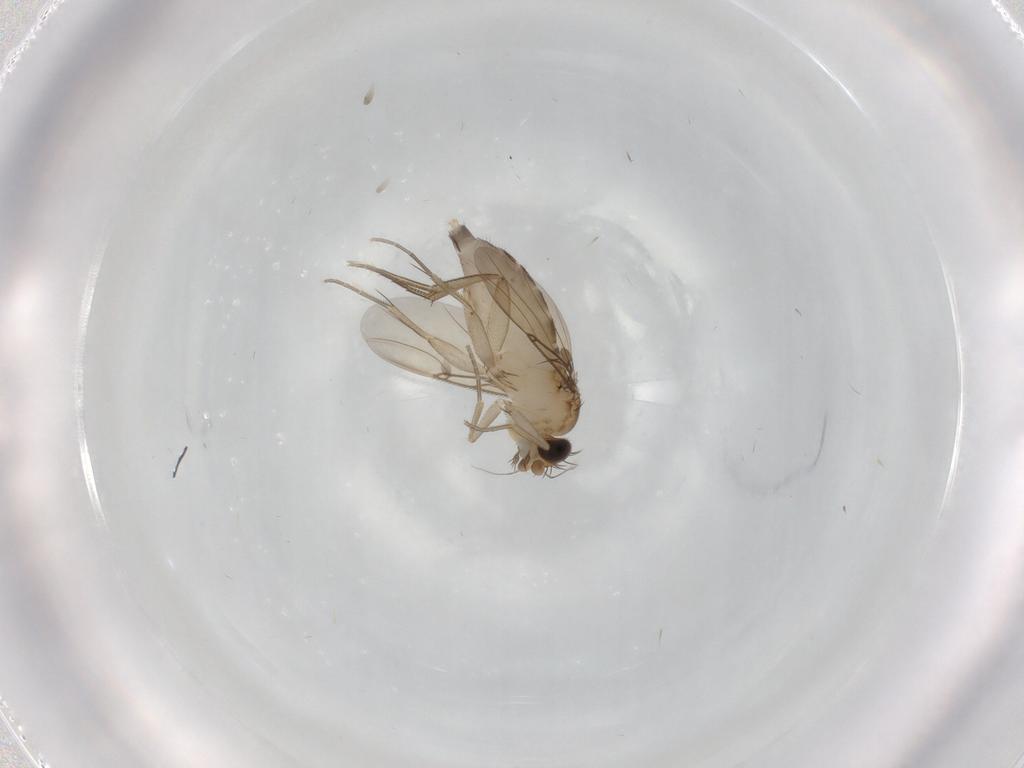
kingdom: Animalia
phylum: Arthropoda
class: Insecta
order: Diptera
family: Phoridae
